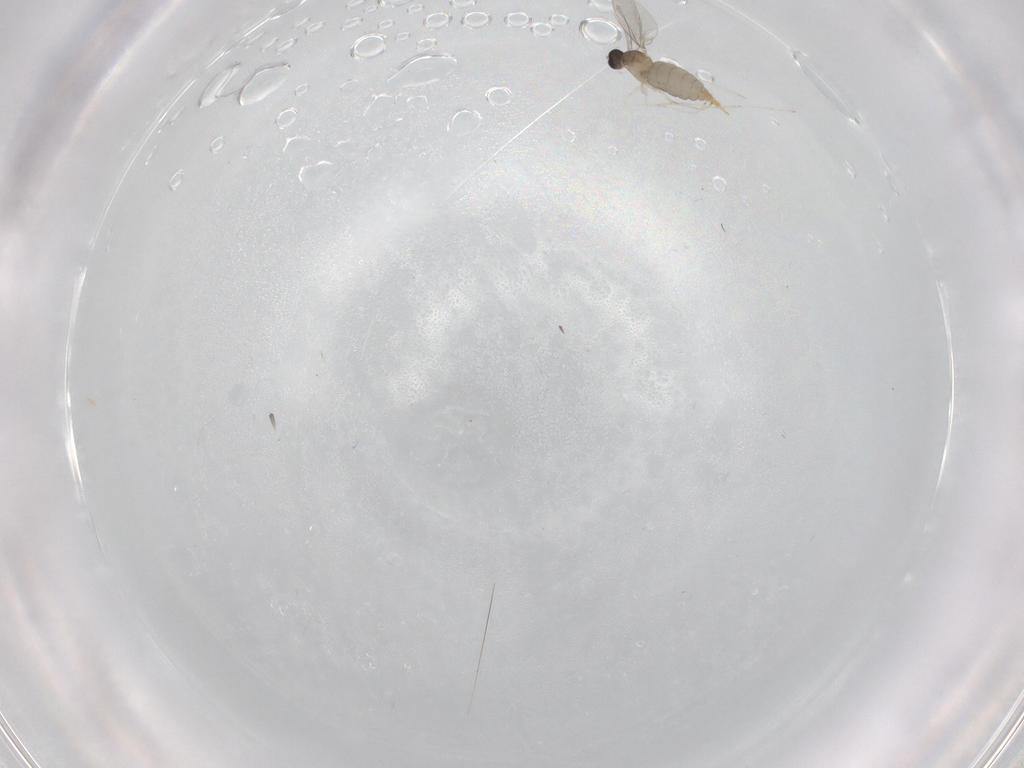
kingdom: Animalia
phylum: Arthropoda
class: Insecta
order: Diptera
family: Cecidomyiidae
